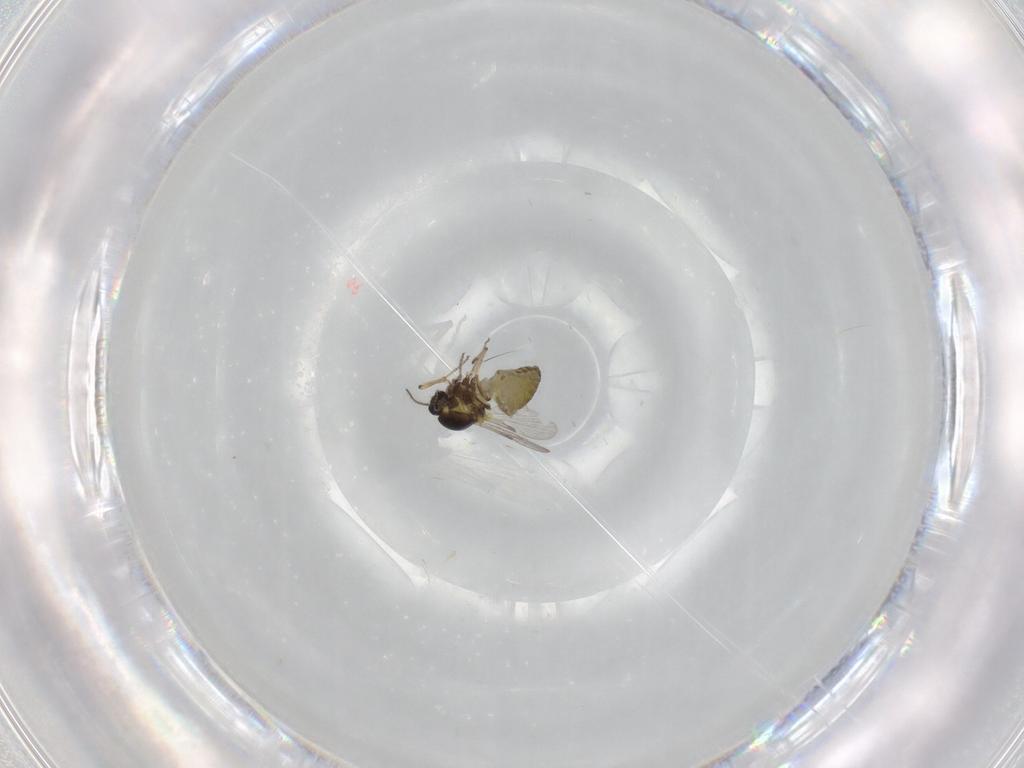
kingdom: Animalia
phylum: Arthropoda
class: Insecta
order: Diptera
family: Ceratopogonidae
